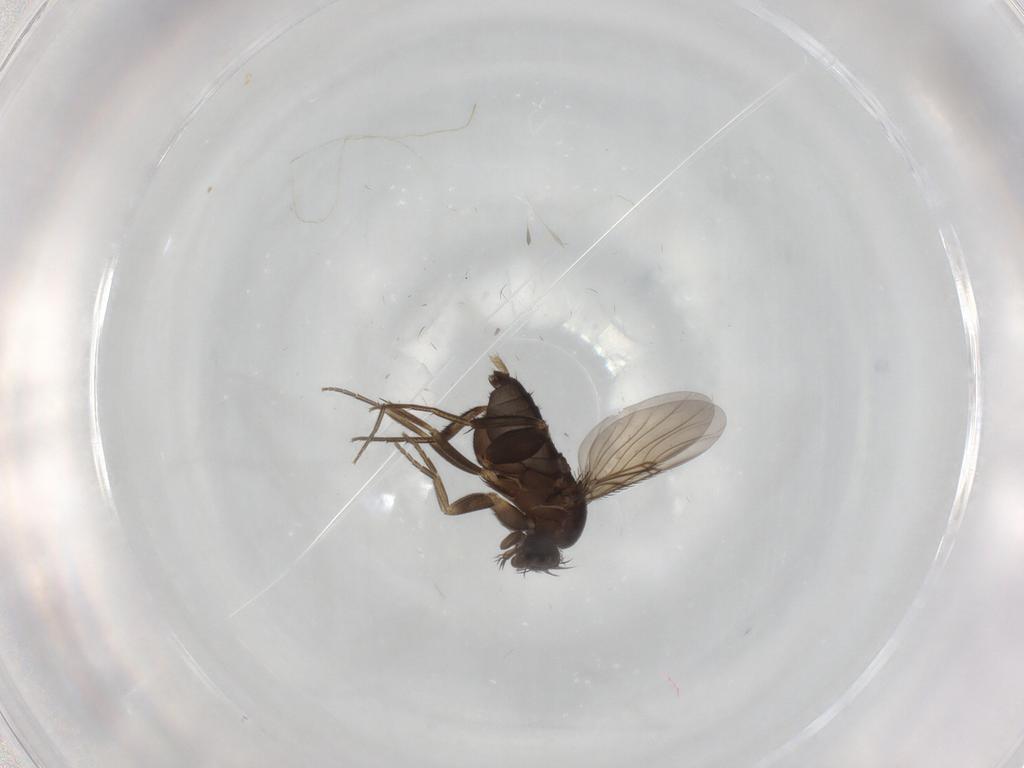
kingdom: Animalia
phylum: Arthropoda
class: Insecta
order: Diptera
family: Phoridae
